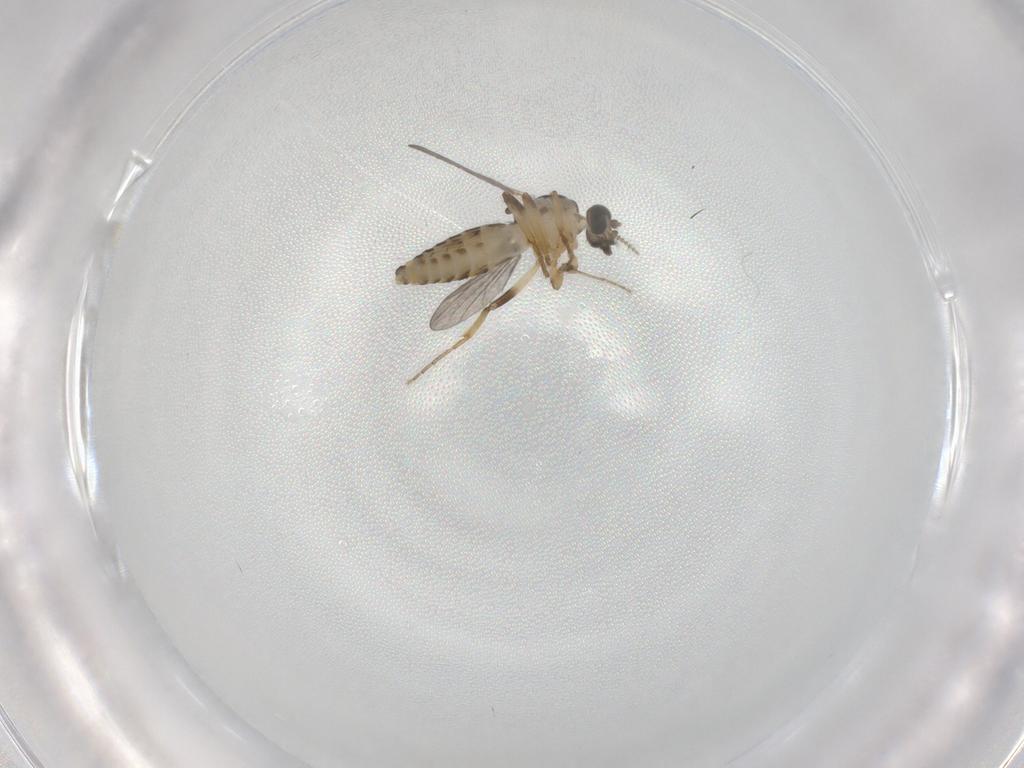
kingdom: Animalia
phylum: Arthropoda
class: Insecta
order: Diptera
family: Ceratopogonidae
